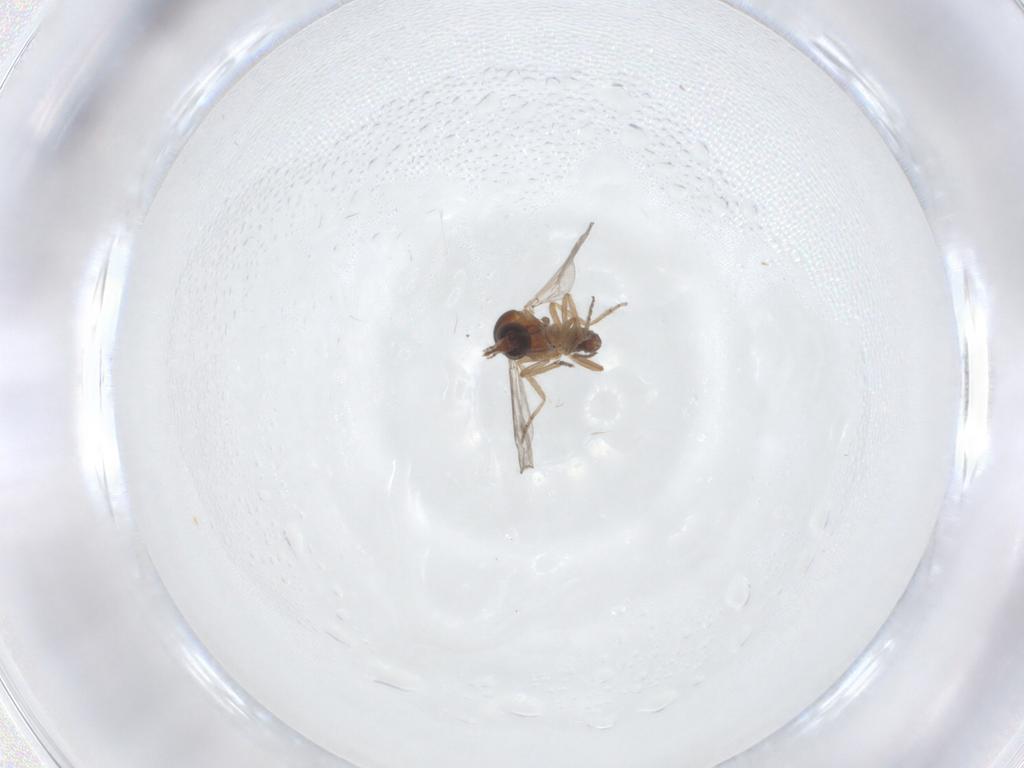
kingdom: Animalia
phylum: Arthropoda
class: Insecta
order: Diptera
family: Ceratopogonidae
